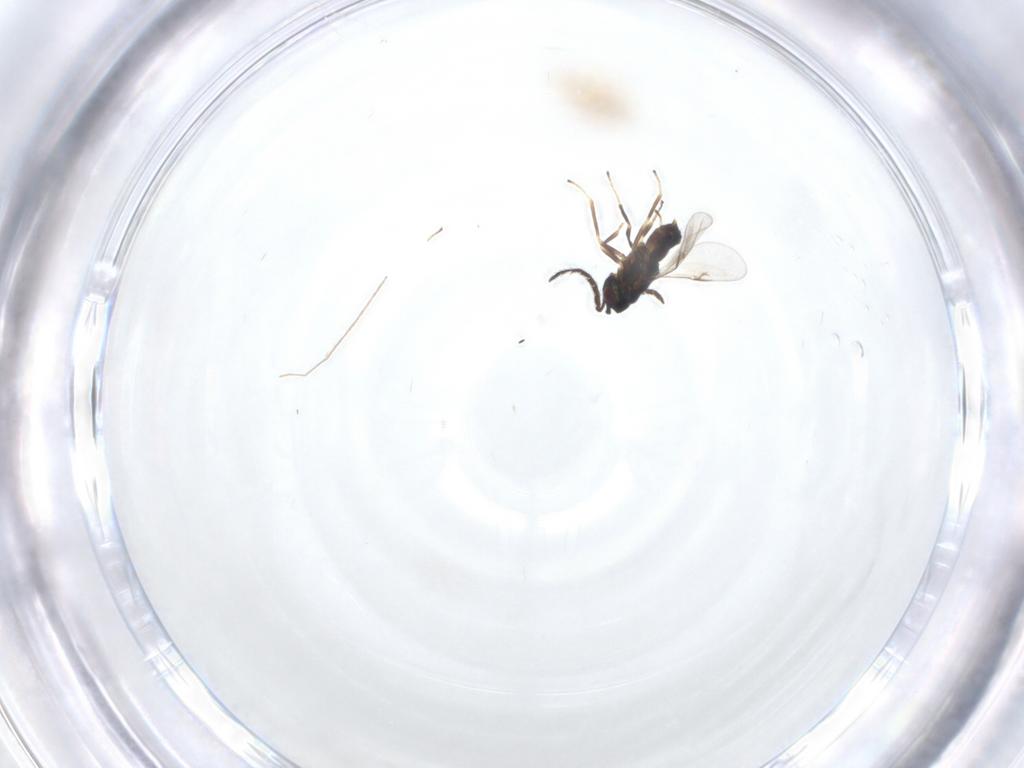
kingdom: Animalia
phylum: Arthropoda
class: Insecta
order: Hymenoptera
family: Encyrtidae
